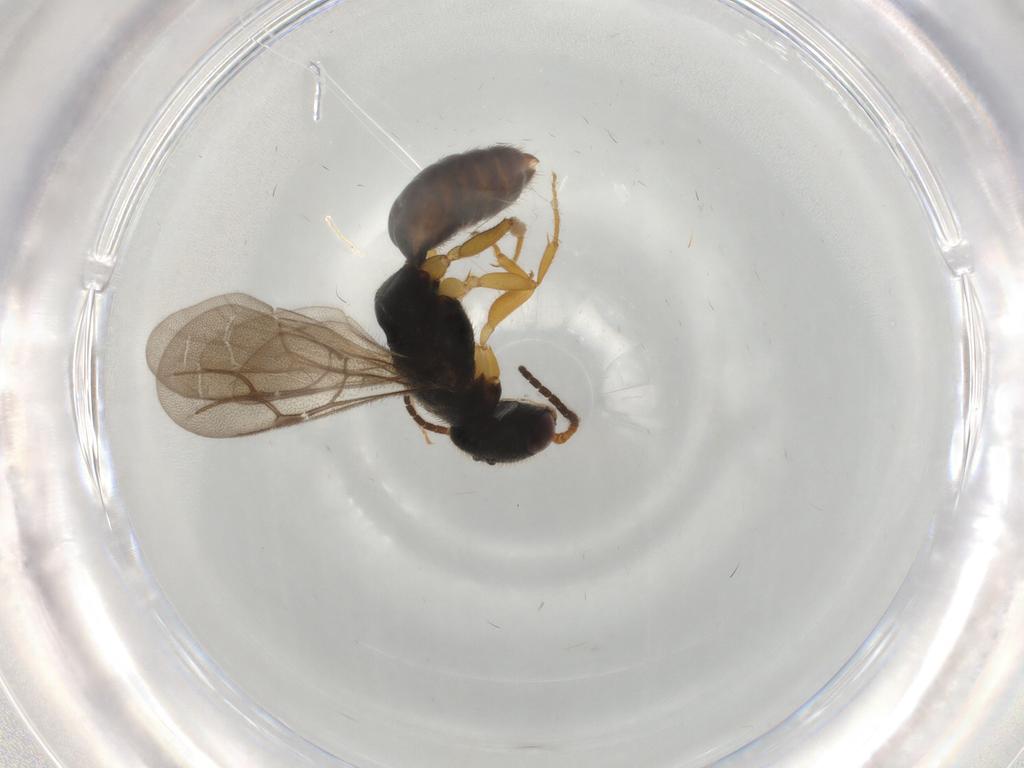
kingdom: Animalia
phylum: Arthropoda
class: Insecta
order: Hymenoptera
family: Bethylidae
